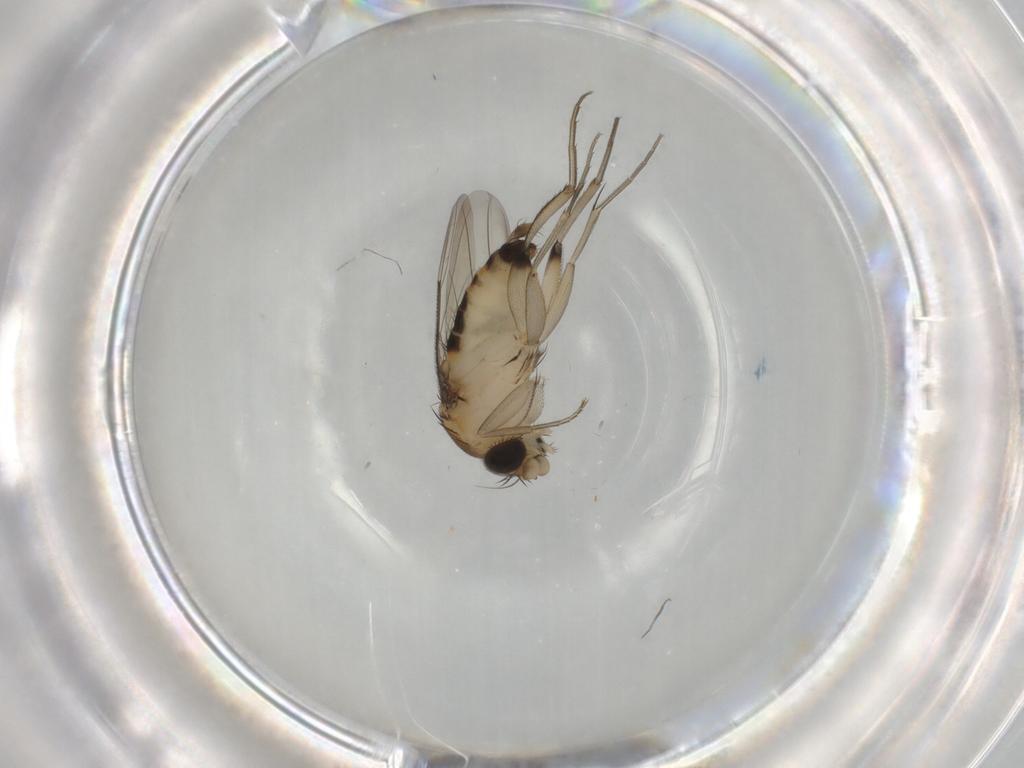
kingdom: Animalia
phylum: Arthropoda
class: Insecta
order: Diptera
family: Phoridae
